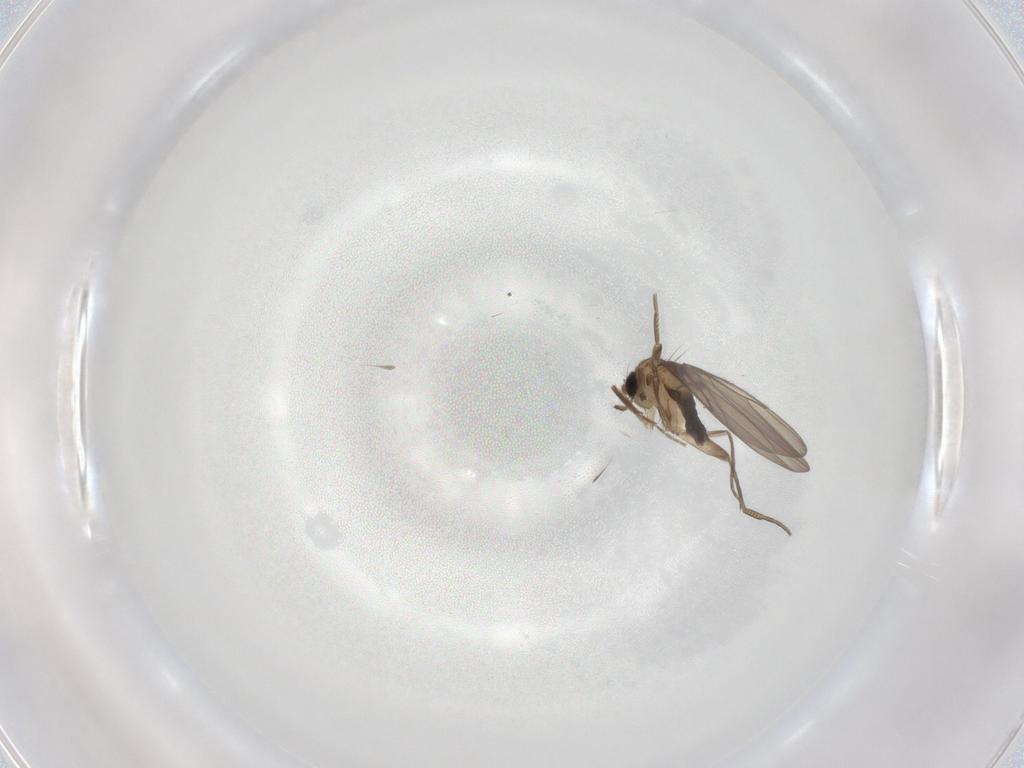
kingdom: Animalia
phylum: Arthropoda
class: Insecta
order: Diptera
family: Phoridae
